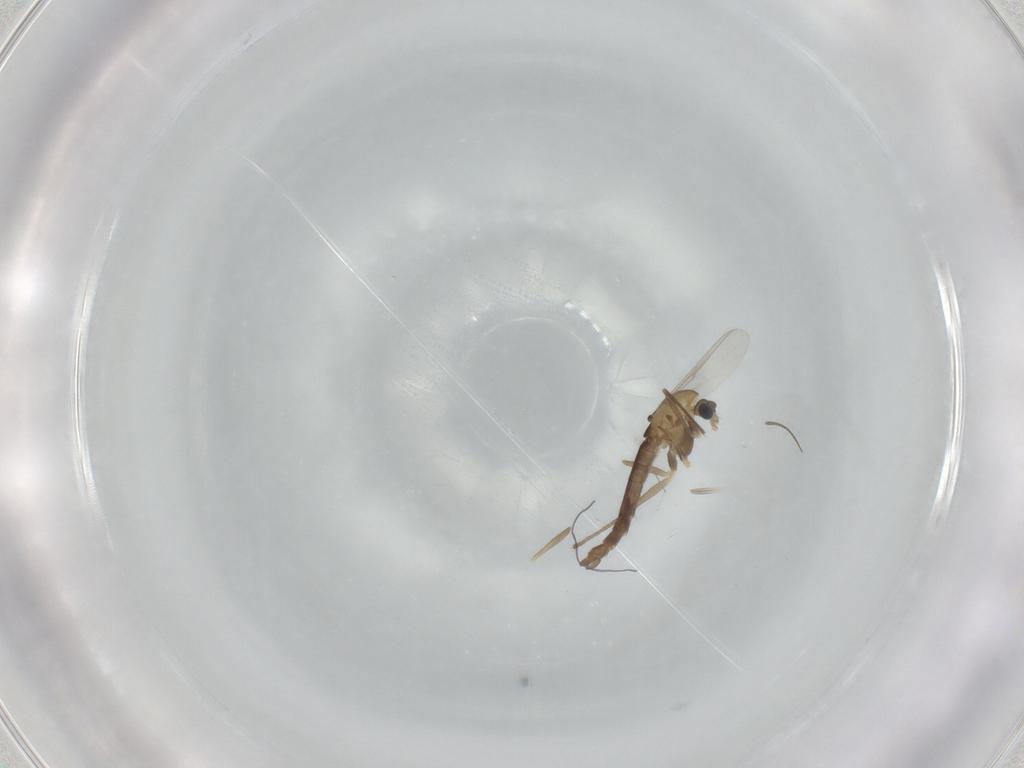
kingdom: Animalia
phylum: Arthropoda
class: Insecta
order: Diptera
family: Chironomidae
